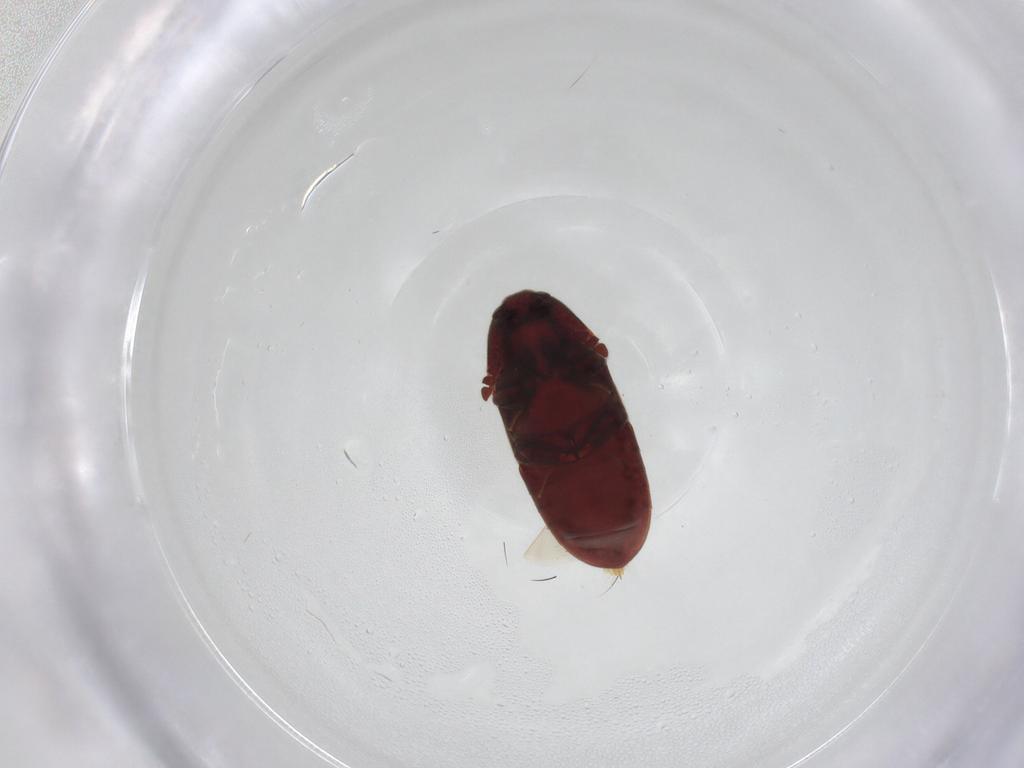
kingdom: Animalia
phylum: Arthropoda
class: Insecta
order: Coleoptera
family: Throscidae
